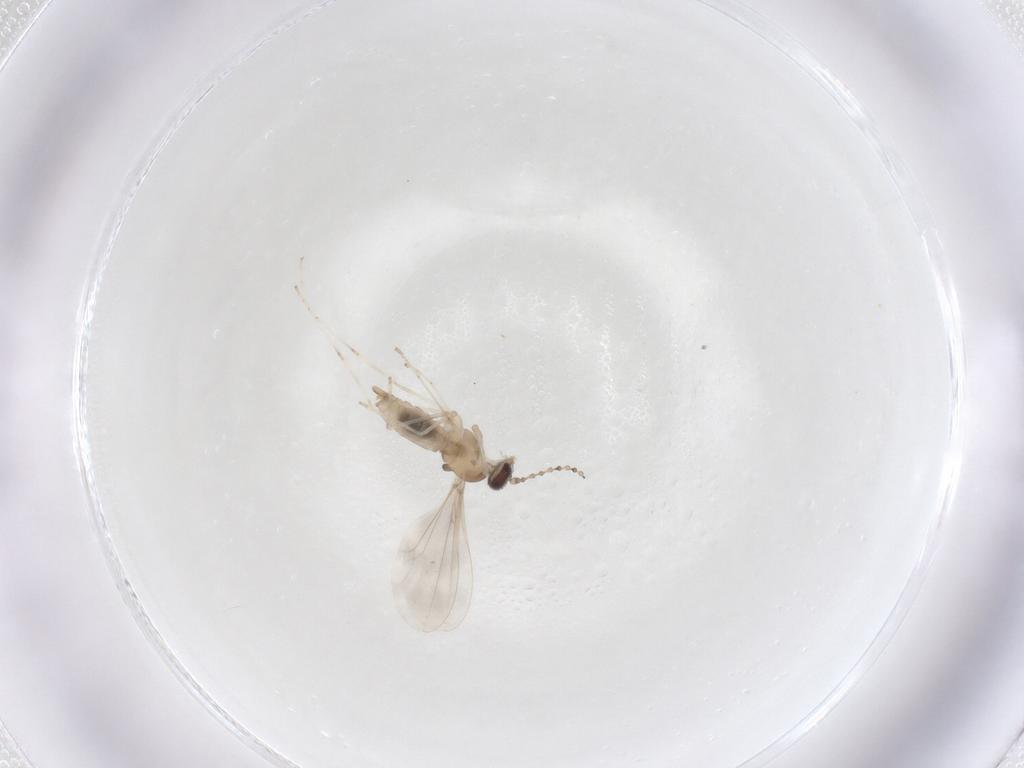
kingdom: Animalia
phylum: Arthropoda
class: Insecta
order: Diptera
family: Cecidomyiidae
